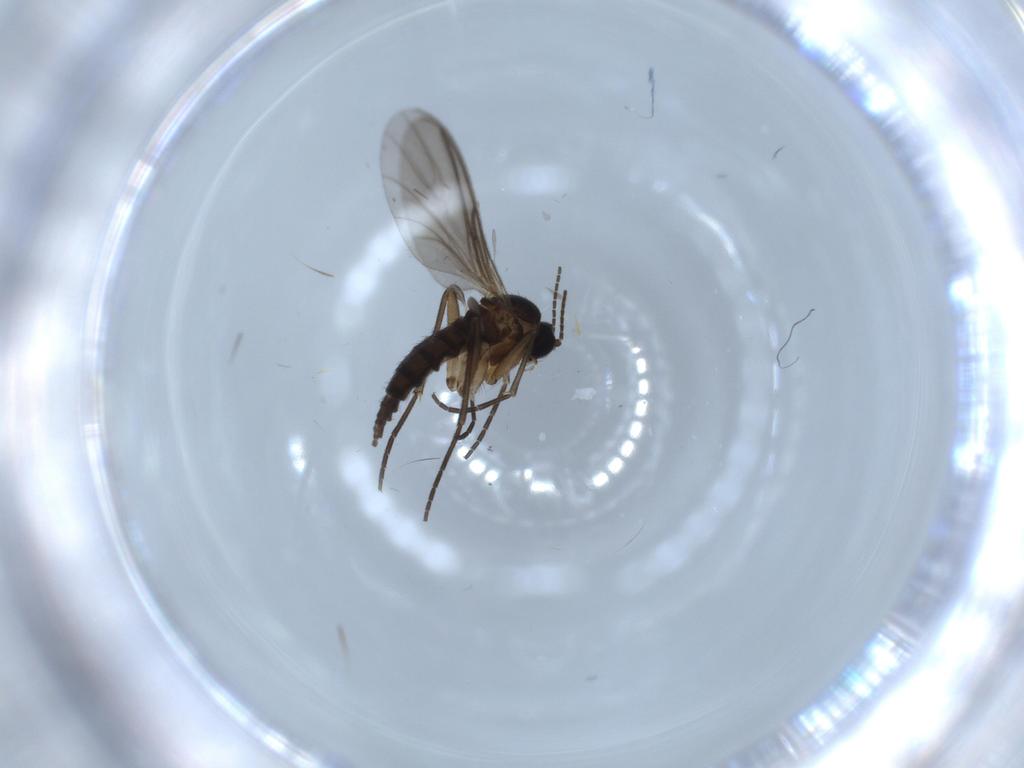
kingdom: Animalia
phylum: Arthropoda
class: Insecta
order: Diptera
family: Sciaridae
